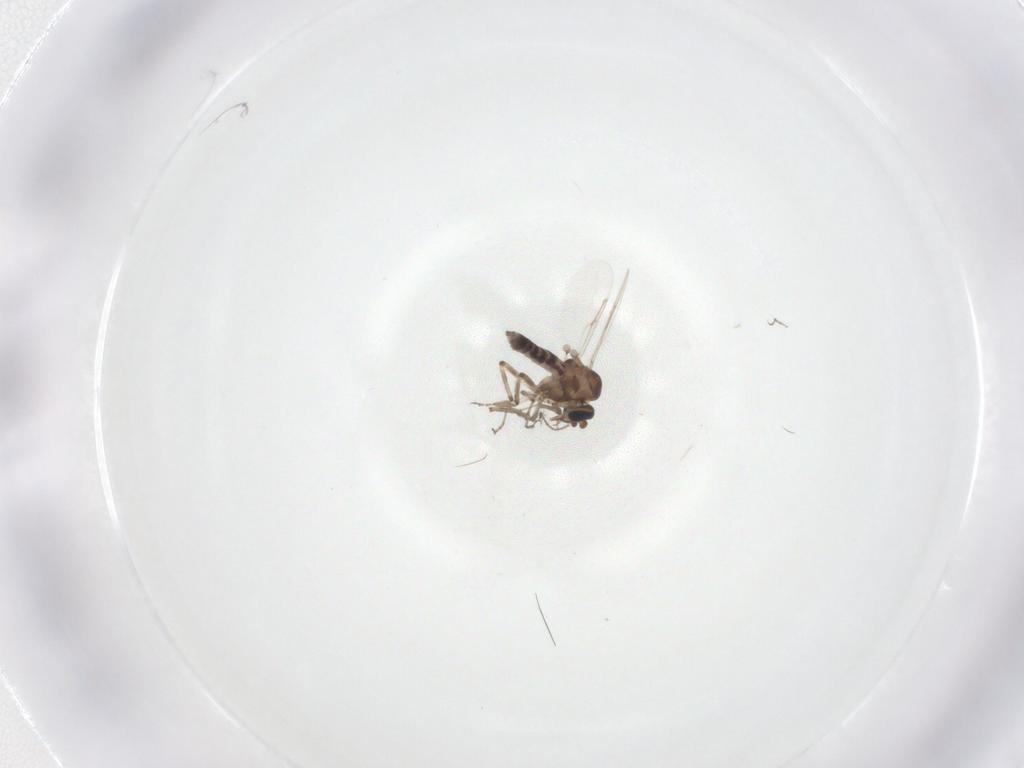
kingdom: Animalia
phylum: Arthropoda
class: Insecta
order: Diptera
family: Ceratopogonidae
